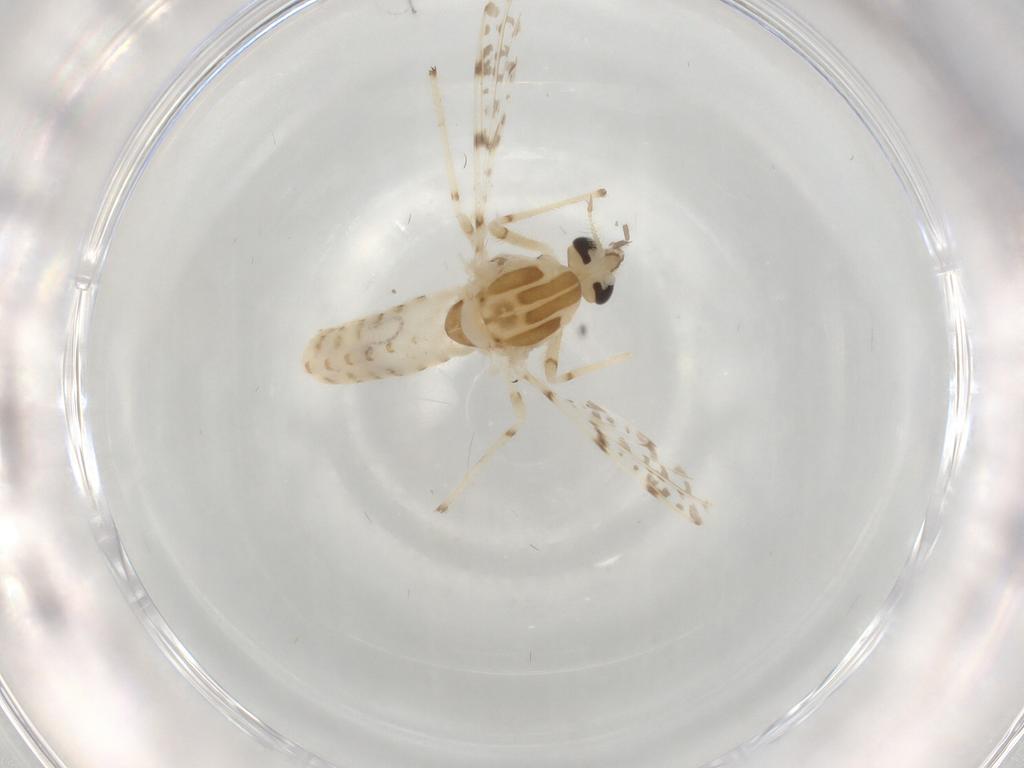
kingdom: Animalia
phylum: Arthropoda
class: Insecta
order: Diptera
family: Chironomidae
